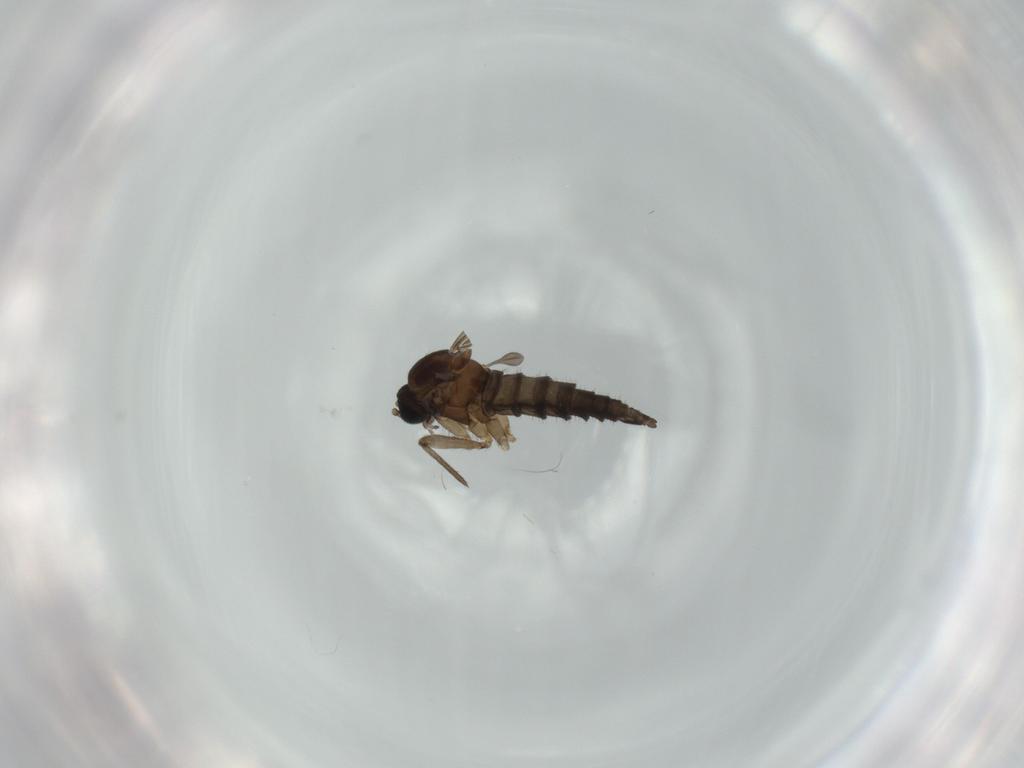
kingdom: Animalia
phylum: Arthropoda
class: Insecta
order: Diptera
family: Sciaridae
